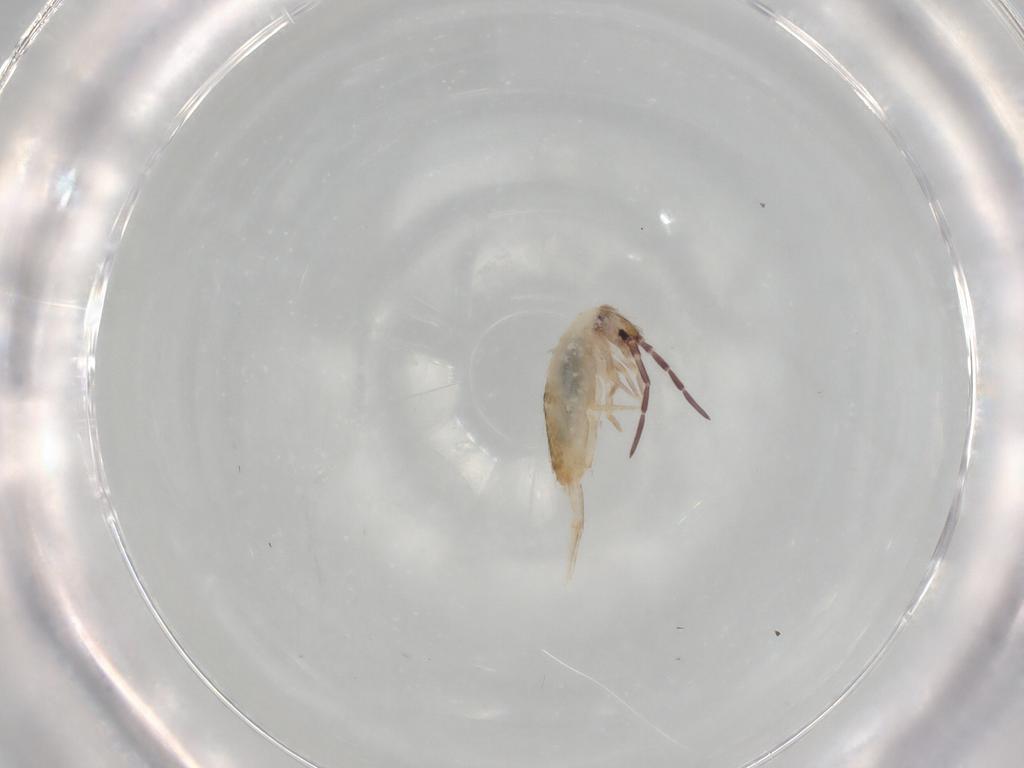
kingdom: Animalia
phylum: Arthropoda
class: Collembola
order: Entomobryomorpha
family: Entomobryidae
